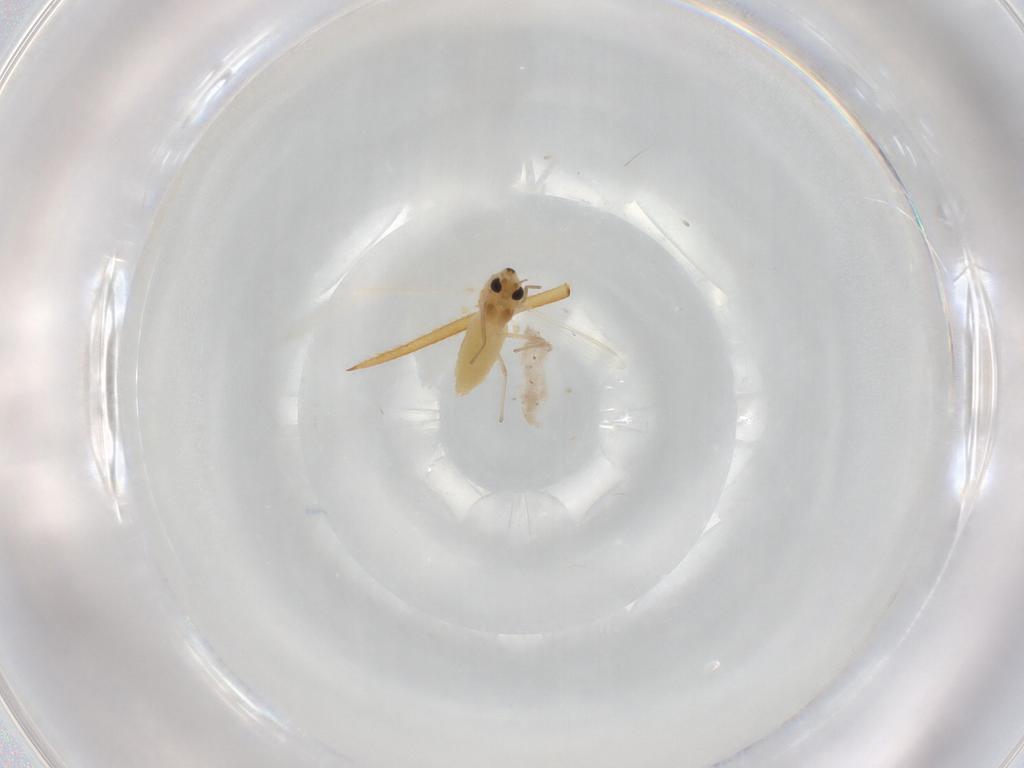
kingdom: Animalia
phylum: Arthropoda
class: Insecta
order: Diptera
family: Chironomidae
